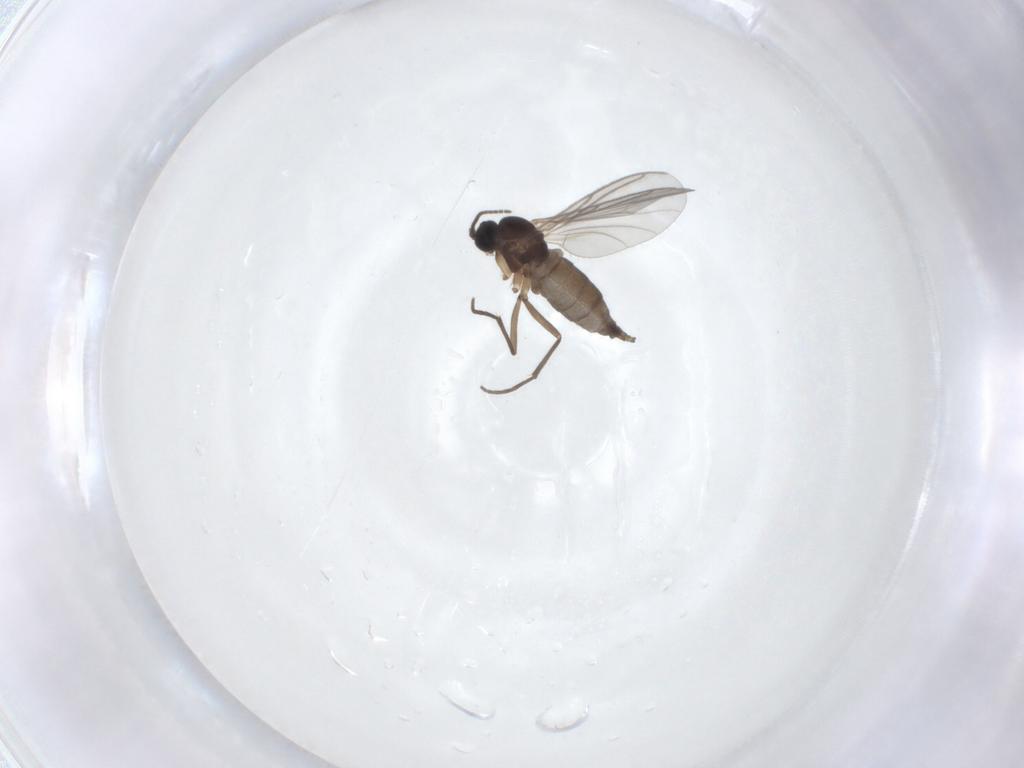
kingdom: Animalia
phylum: Arthropoda
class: Insecta
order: Diptera
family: Sciaridae
